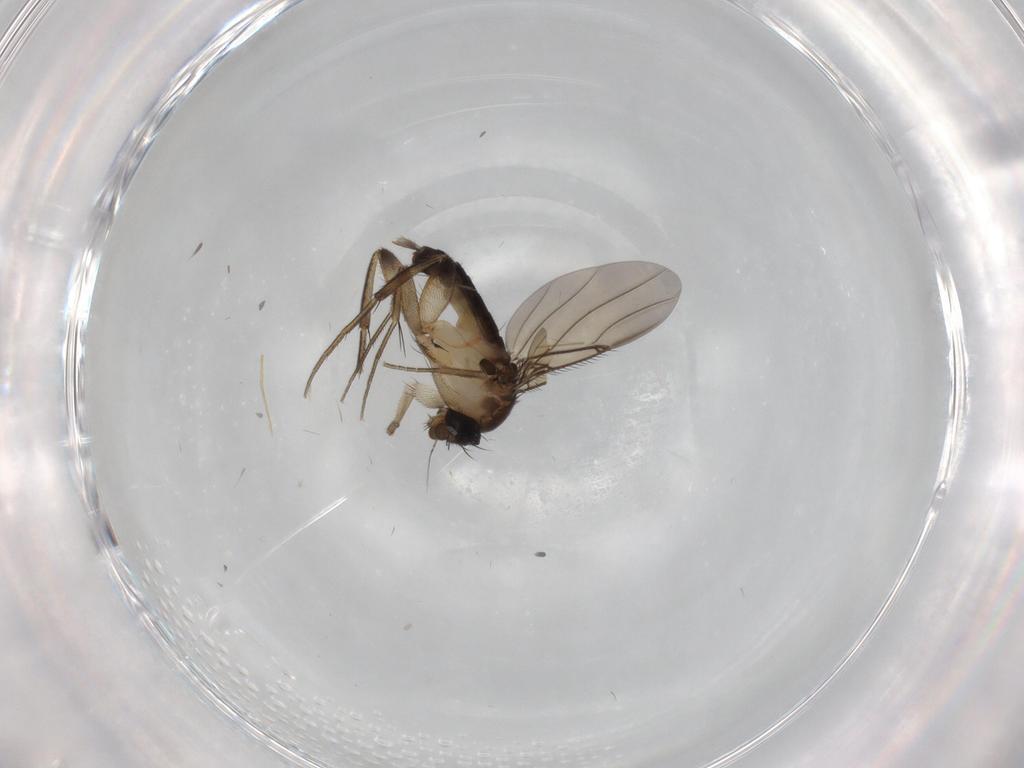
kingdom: Animalia
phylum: Arthropoda
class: Insecta
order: Diptera
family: Phoridae
